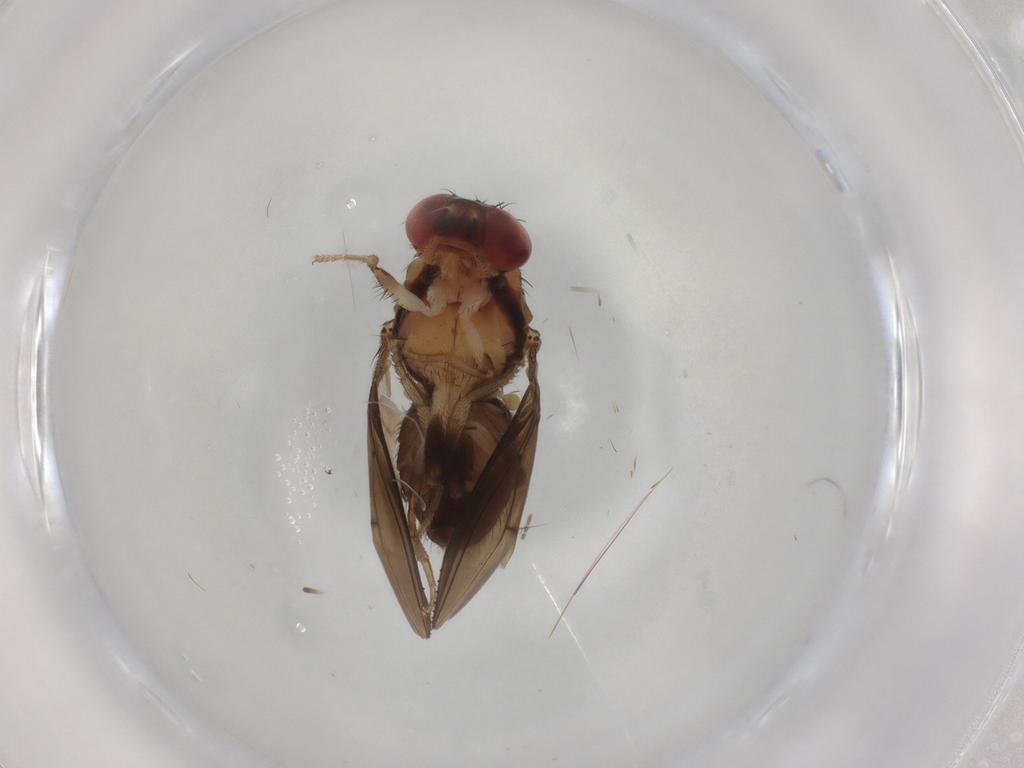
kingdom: Animalia
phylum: Arthropoda
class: Insecta
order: Diptera
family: Drosophilidae
